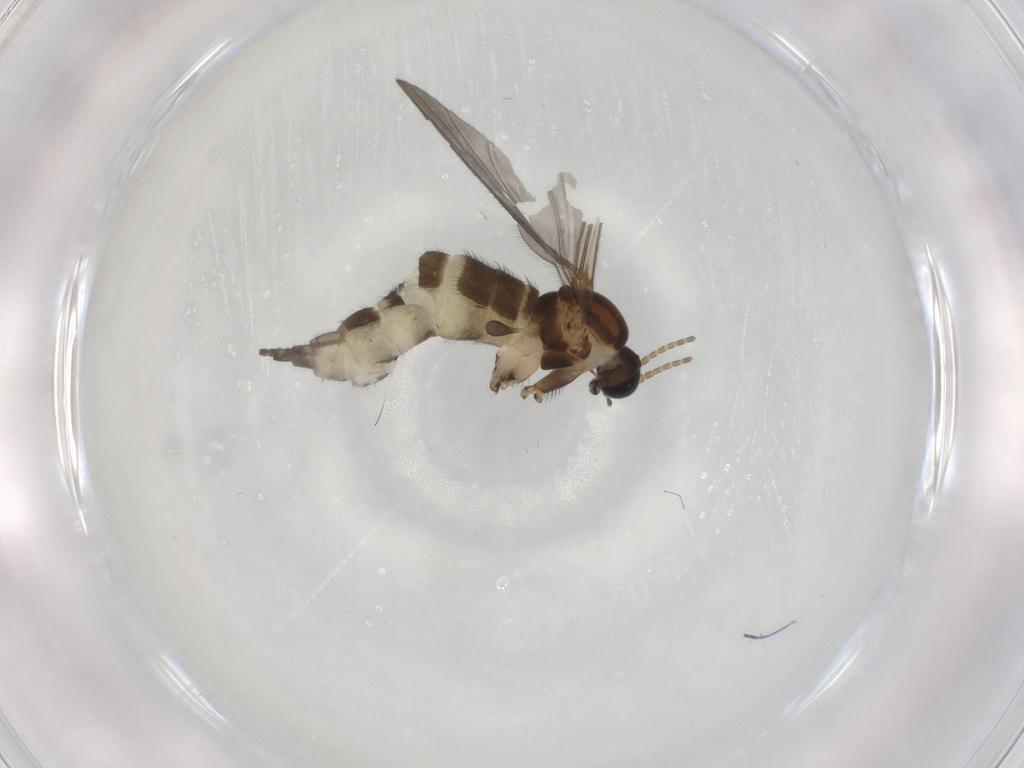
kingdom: Animalia
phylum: Arthropoda
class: Insecta
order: Diptera
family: Sciaridae
